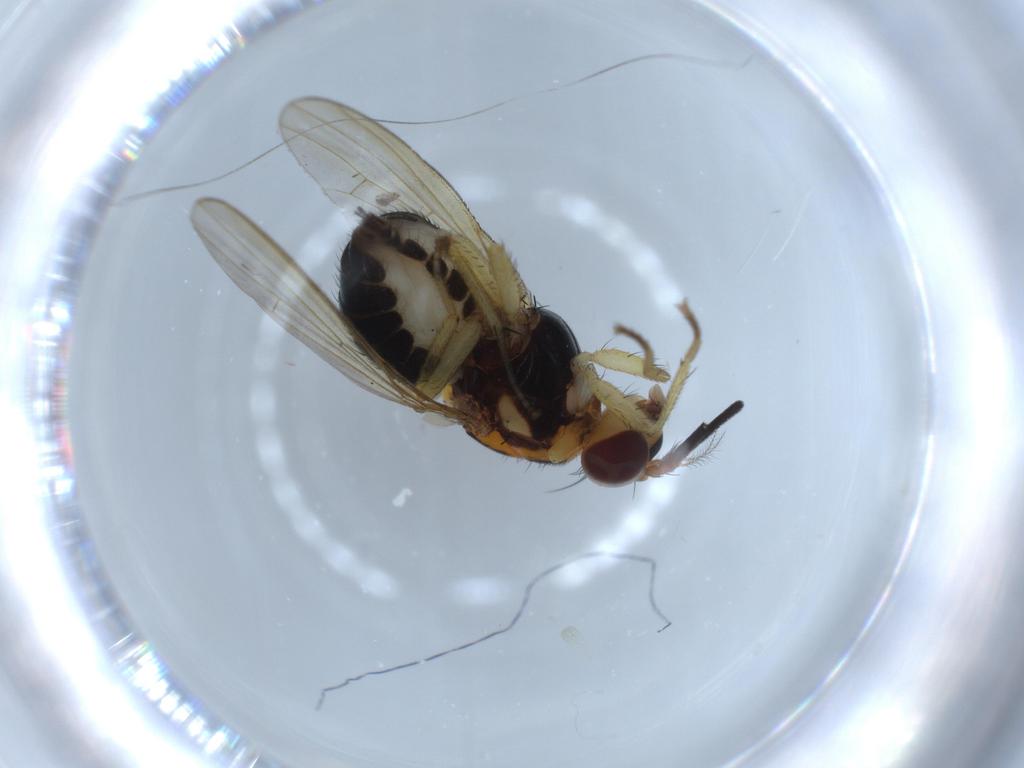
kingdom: Animalia
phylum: Arthropoda
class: Insecta
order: Diptera
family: Lauxaniidae
